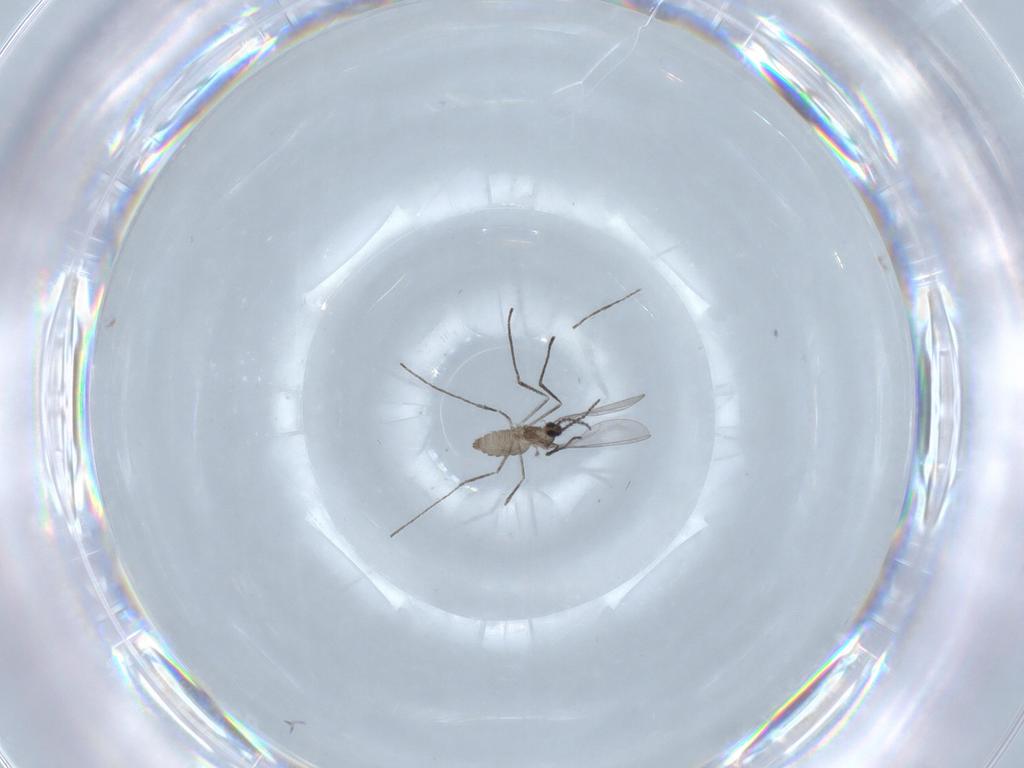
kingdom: Animalia
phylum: Arthropoda
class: Insecta
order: Diptera
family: Cecidomyiidae
